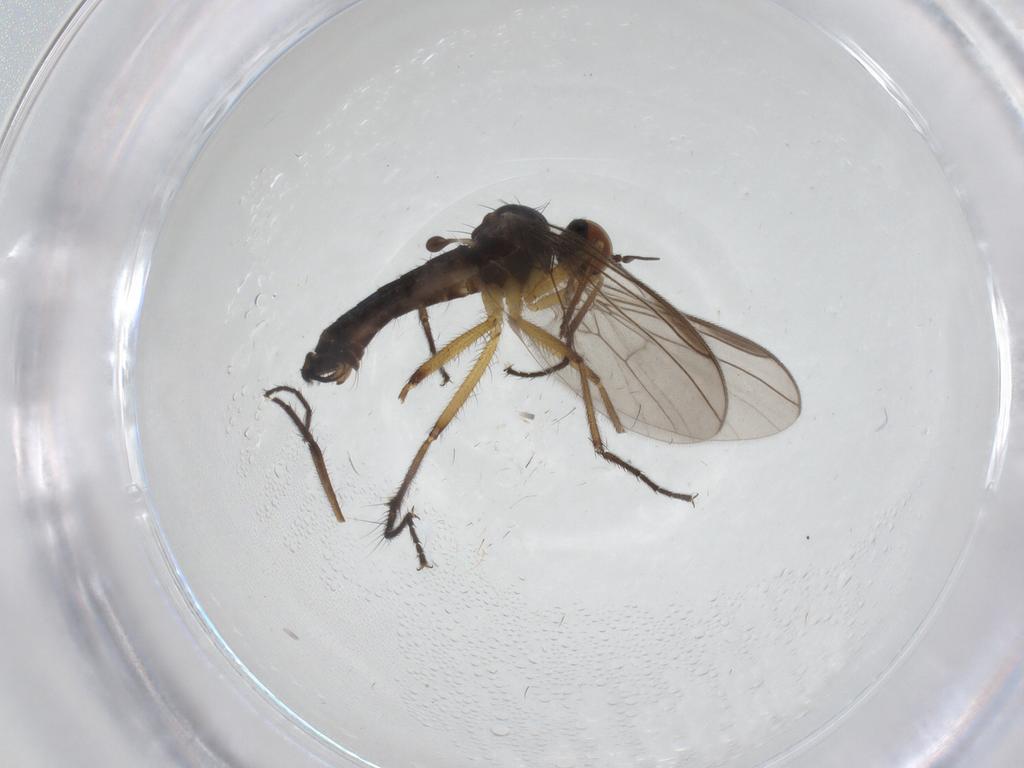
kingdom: Animalia
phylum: Arthropoda
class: Insecta
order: Diptera
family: Empididae
